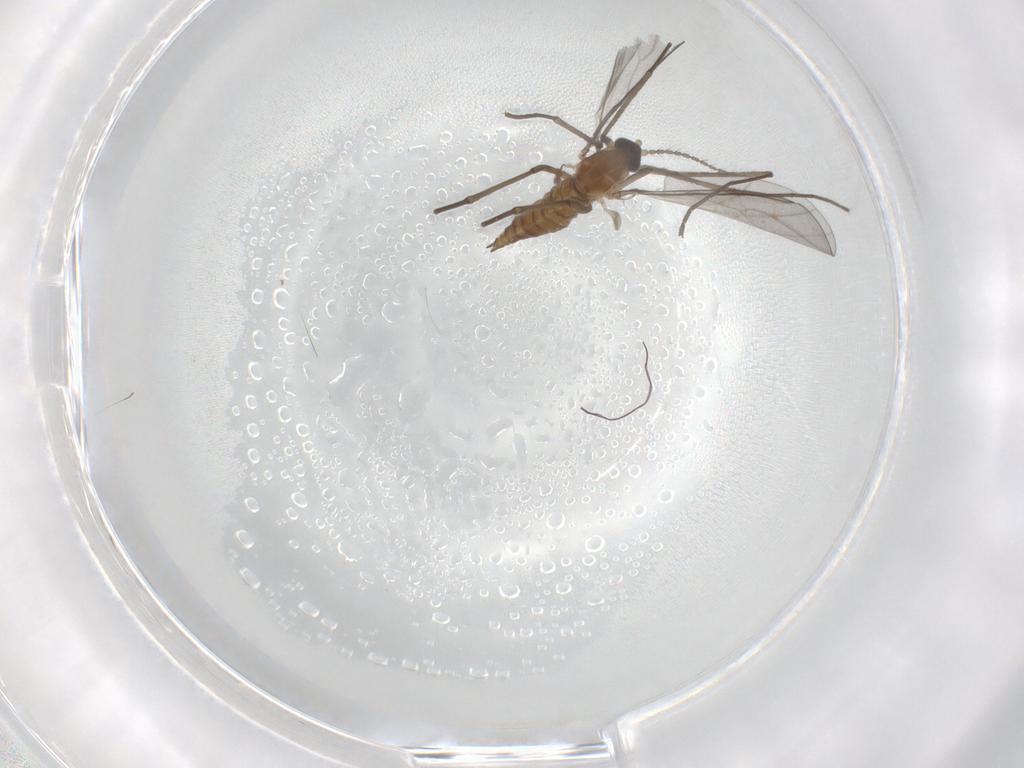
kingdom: Animalia
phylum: Arthropoda
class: Insecta
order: Diptera
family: Cecidomyiidae
